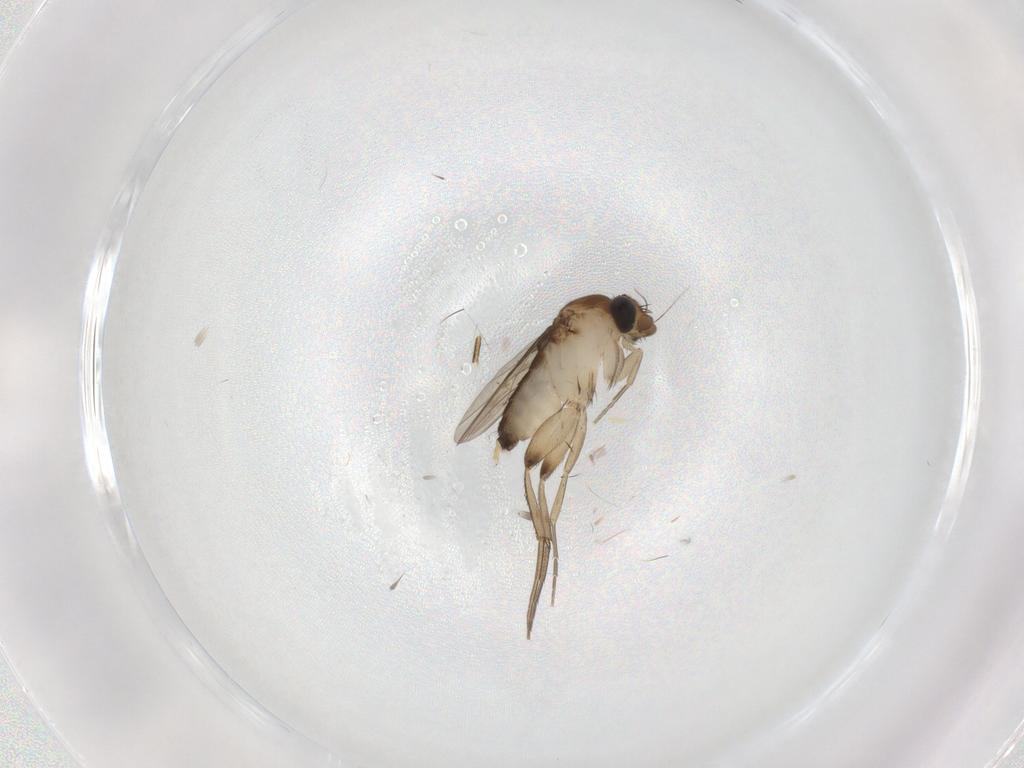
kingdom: Animalia
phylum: Arthropoda
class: Insecta
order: Diptera
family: Phoridae
